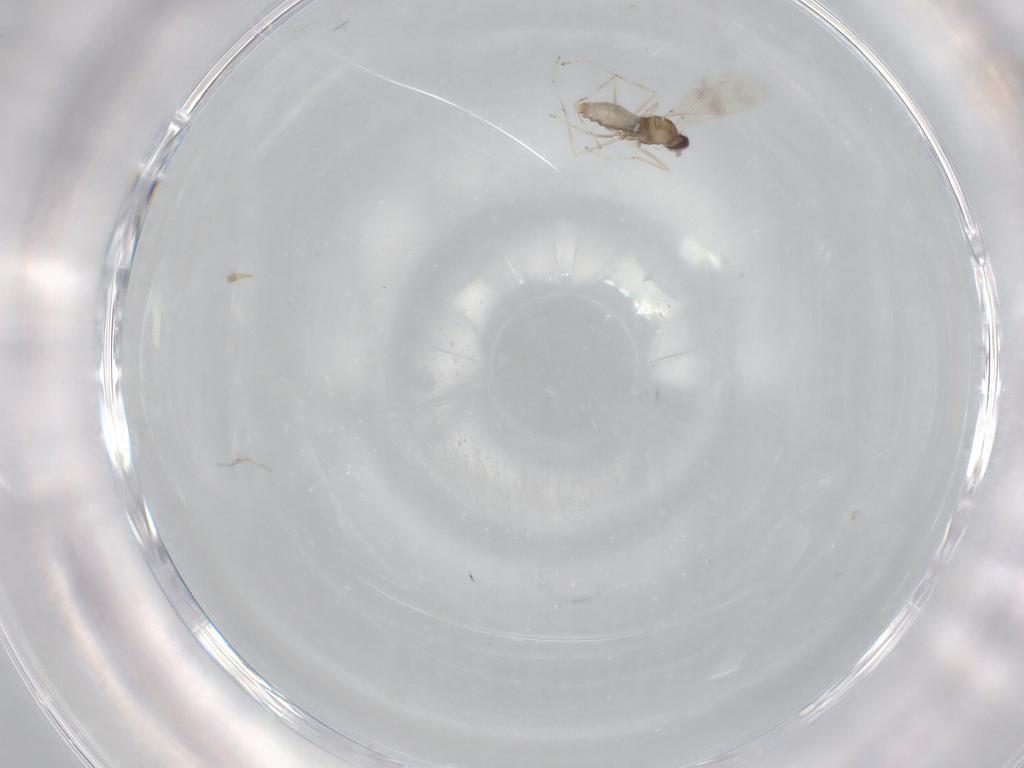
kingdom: Animalia
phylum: Arthropoda
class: Insecta
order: Diptera
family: Cecidomyiidae
